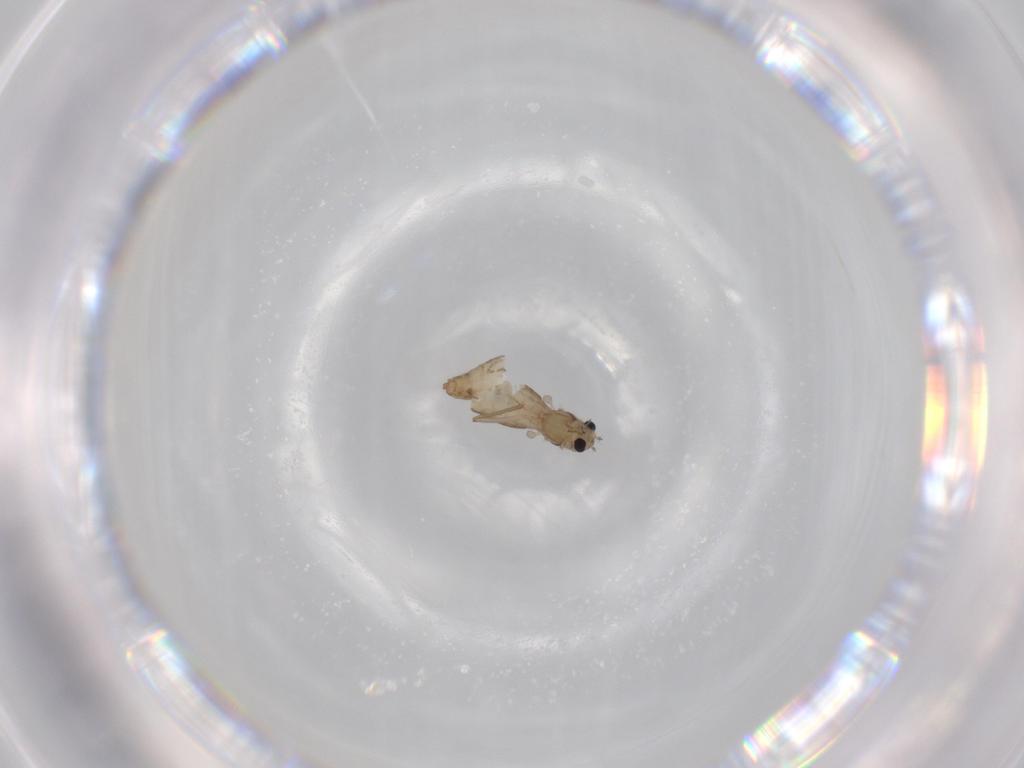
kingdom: Animalia
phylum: Arthropoda
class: Insecta
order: Diptera
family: Chironomidae
